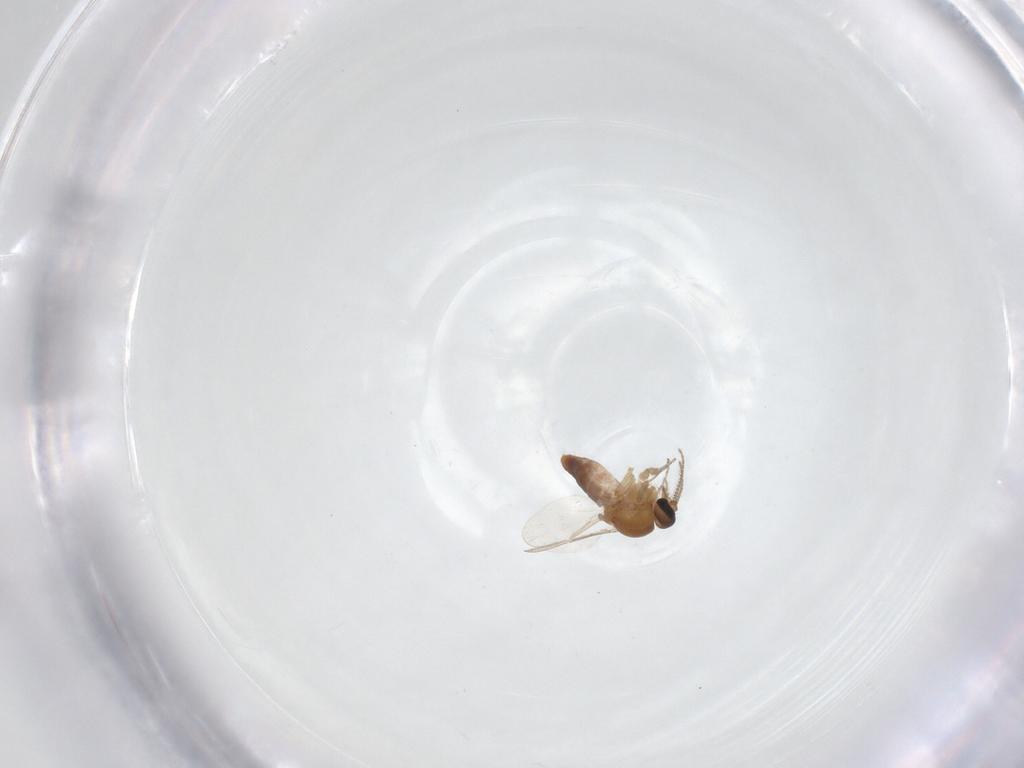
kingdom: Animalia
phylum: Arthropoda
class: Insecta
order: Diptera
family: Ceratopogonidae
